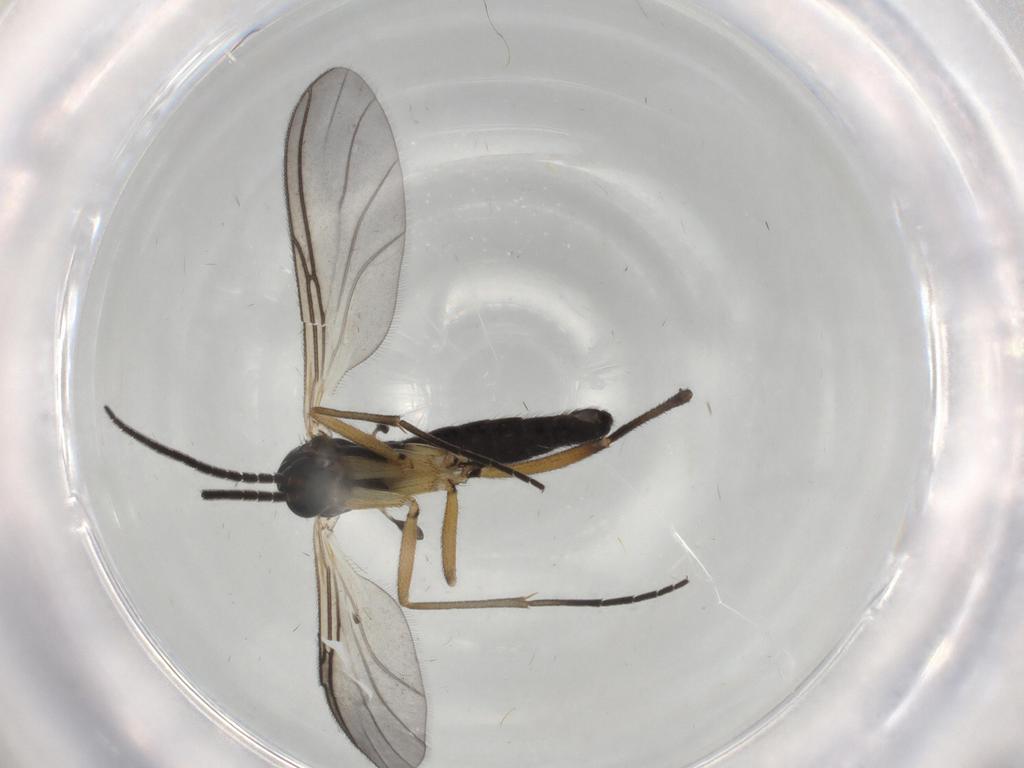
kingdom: Animalia
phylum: Arthropoda
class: Insecta
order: Diptera
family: Sciaridae
